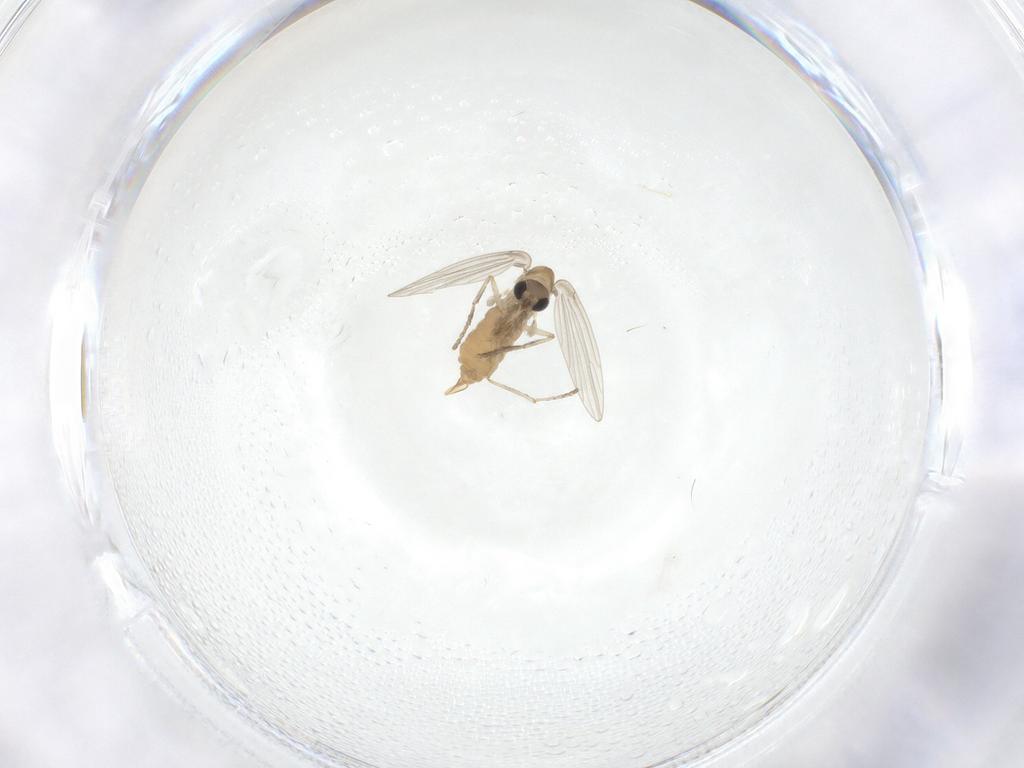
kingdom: Animalia
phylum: Arthropoda
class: Insecta
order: Diptera
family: Psychodidae
